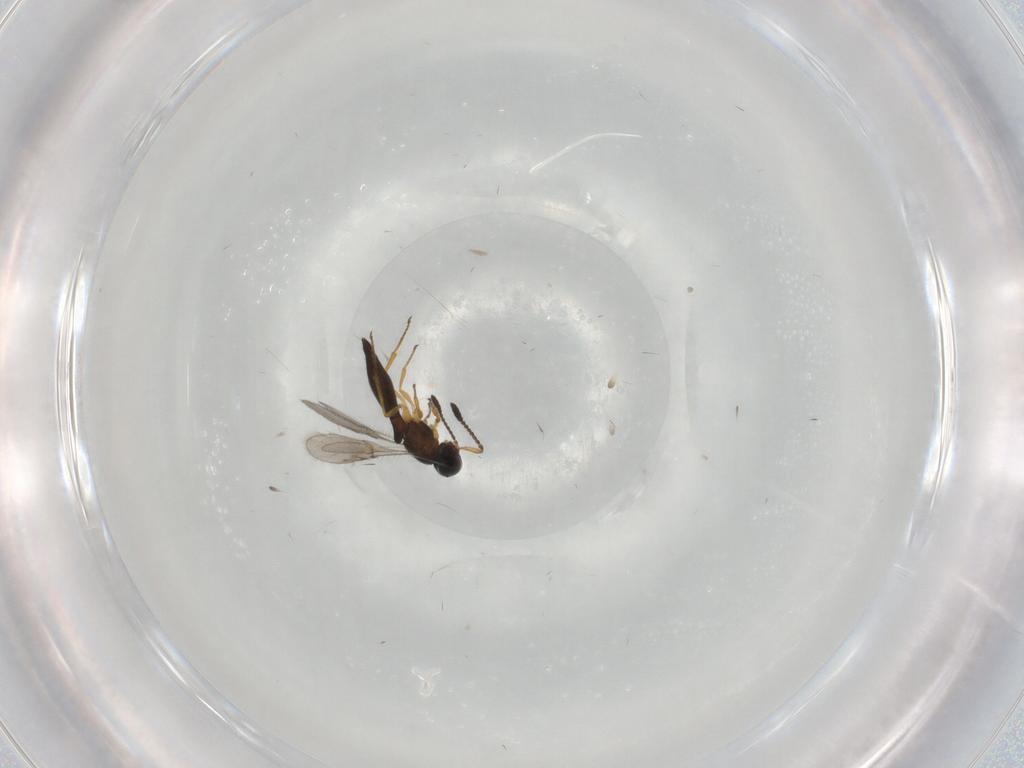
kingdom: Animalia
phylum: Arthropoda
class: Insecta
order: Hymenoptera
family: Scelionidae
